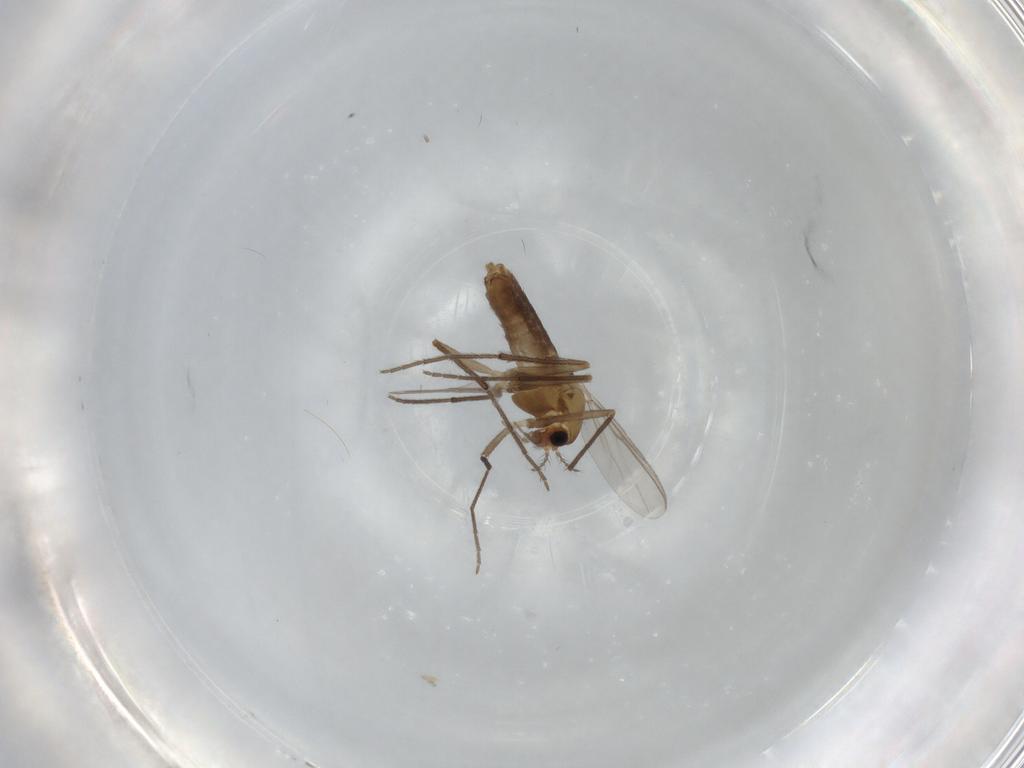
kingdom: Animalia
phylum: Arthropoda
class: Insecta
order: Diptera
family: Chironomidae
